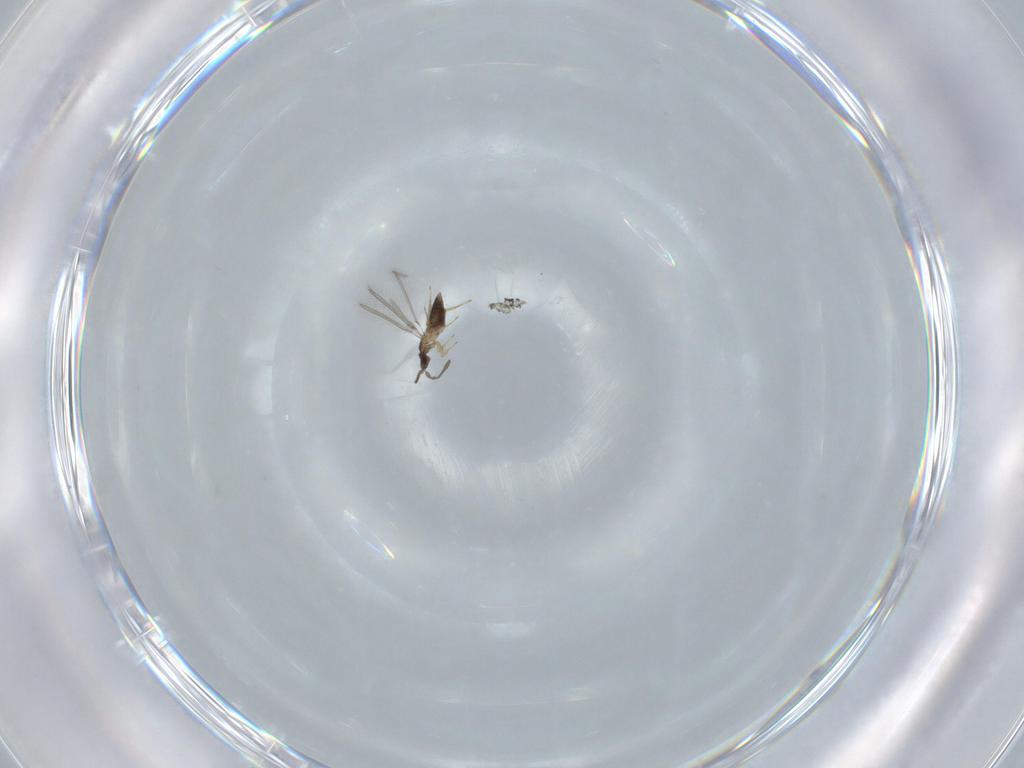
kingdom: Animalia
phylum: Arthropoda
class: Insecta
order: Hymenoptera
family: Mymaridae
